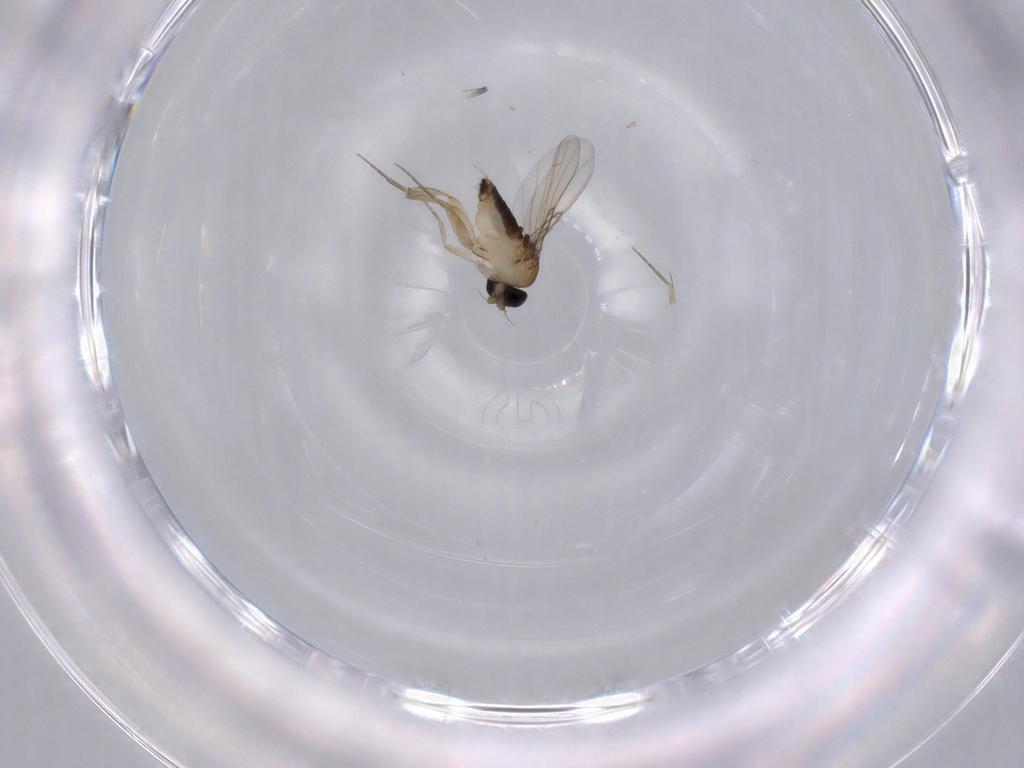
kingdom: Animalia
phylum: Arthropoda
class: Insecta
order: Diptera
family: Phoridae
